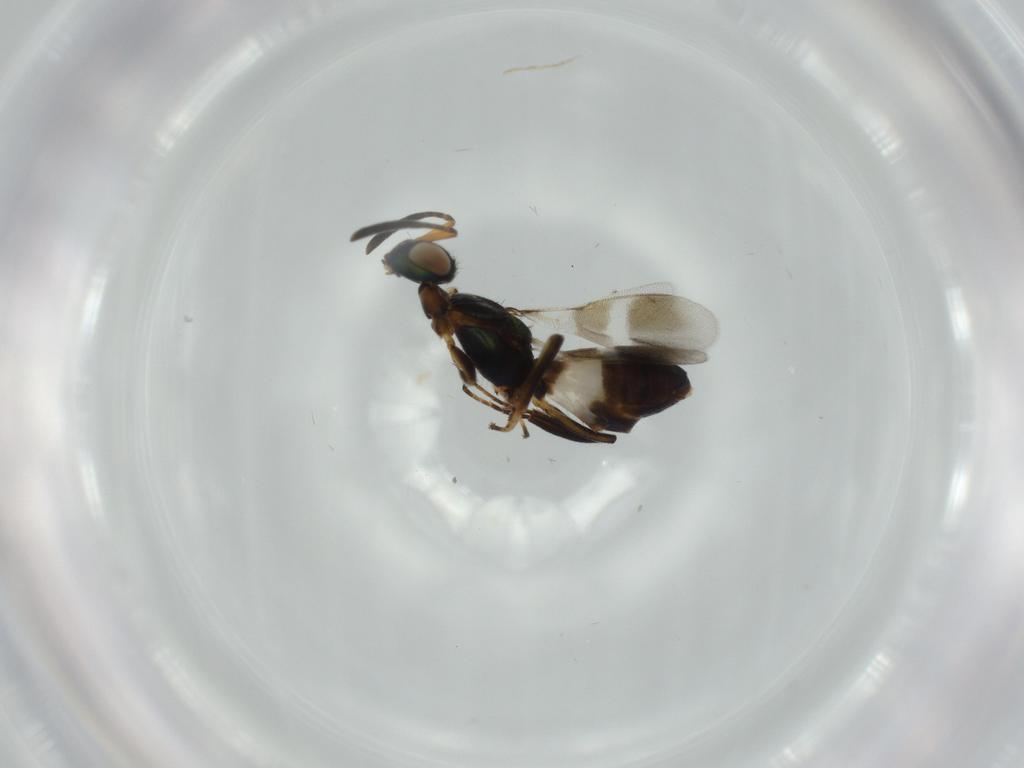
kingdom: Animalia
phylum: Arthropoda
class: Insecta
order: Hymenoptera
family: Eupelmidae
